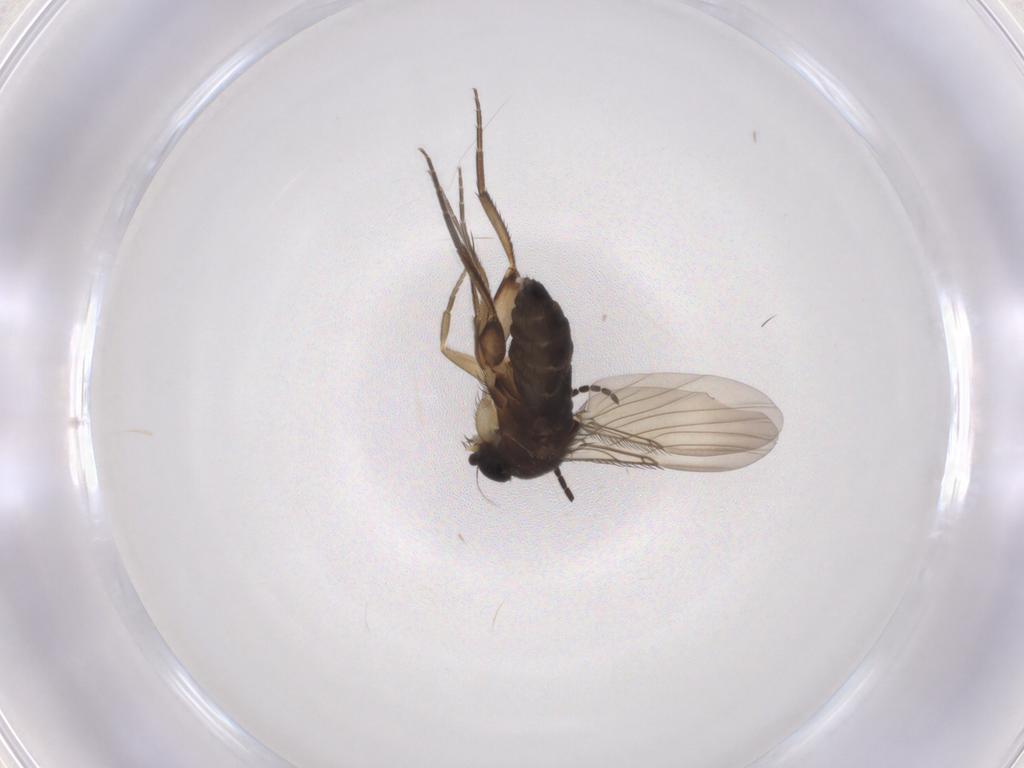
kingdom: Animalia
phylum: Arthropoda
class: Insecta
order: Diptera
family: Phoridae
